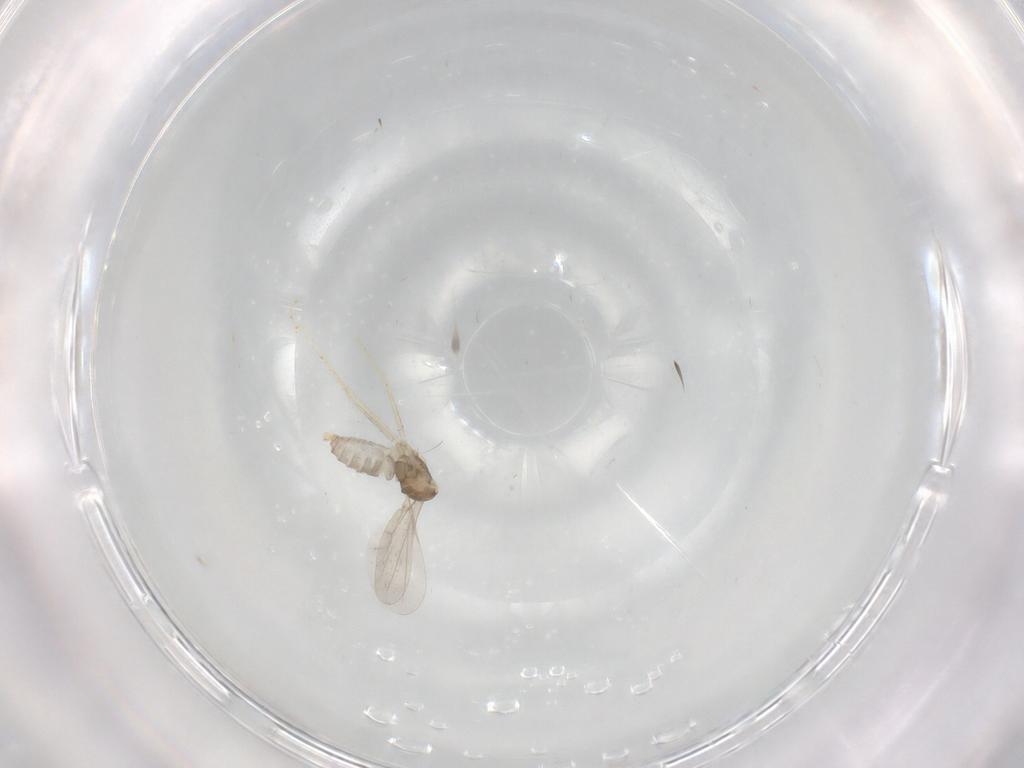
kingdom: Animalia
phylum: Arthropoda
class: Insecta
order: Diptera
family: Cecidomyiidae
